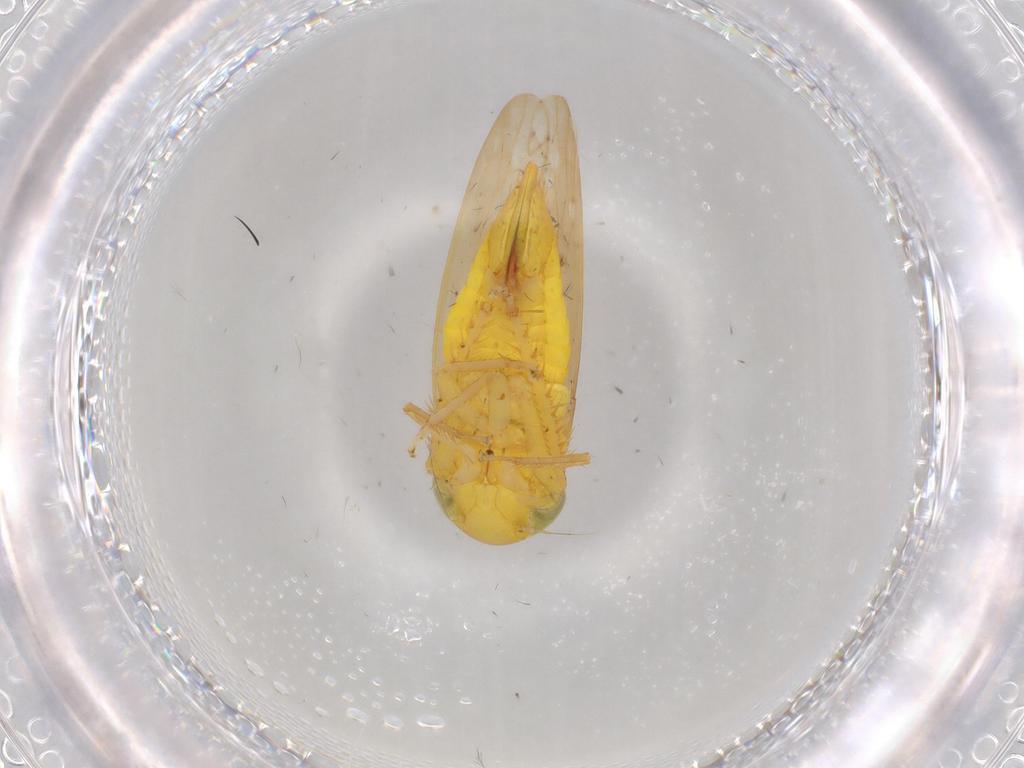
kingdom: Animalia
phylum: Arthropoda
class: Insecta
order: Hemiptera
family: Cicadellidae
